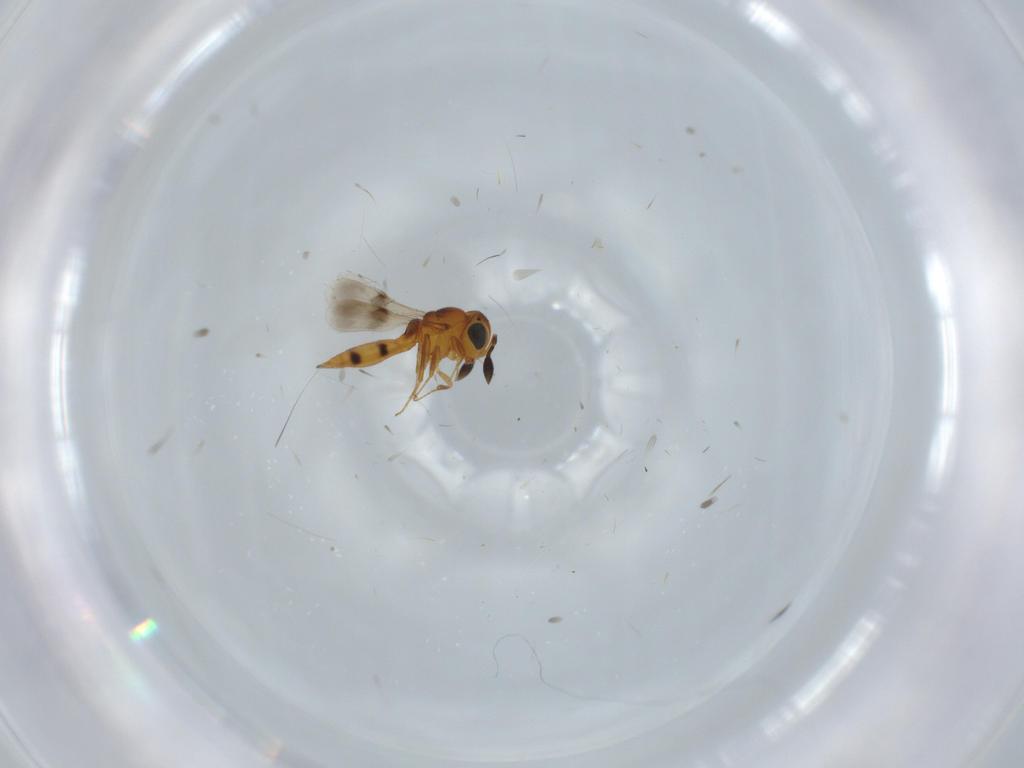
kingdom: Animalia
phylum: Arthropoda
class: Insecta
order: Hymenoptera
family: Scelionidae
